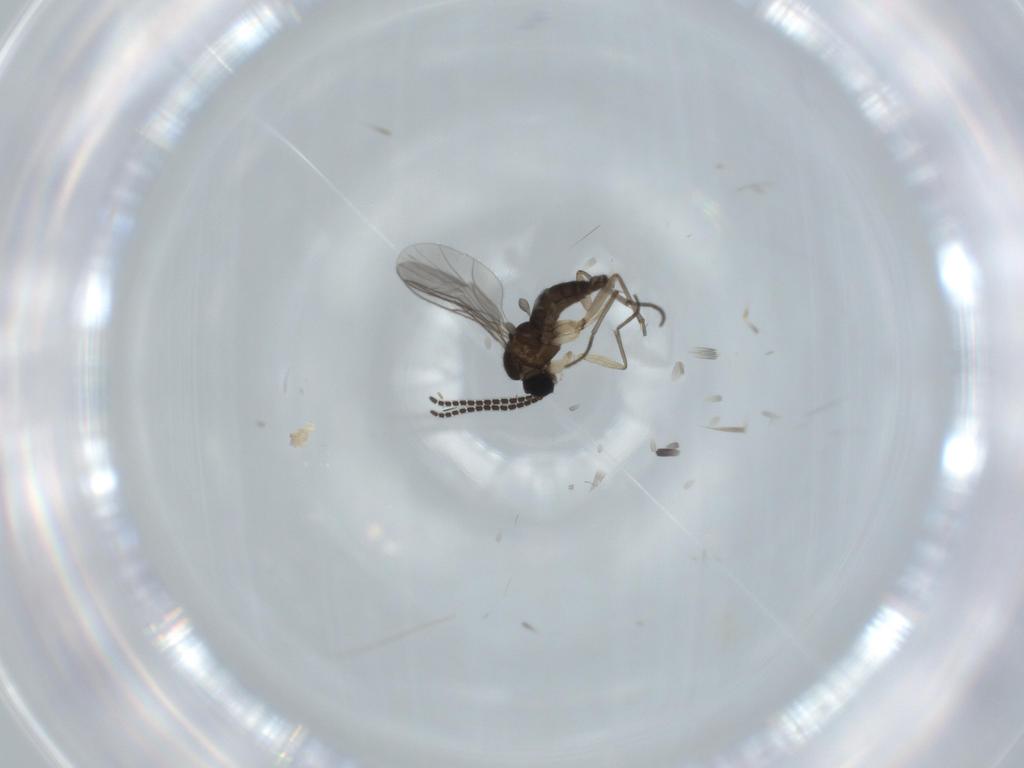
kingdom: Animalia
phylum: Arthropoda
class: Insecta
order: Diptera
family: Sciaridae
